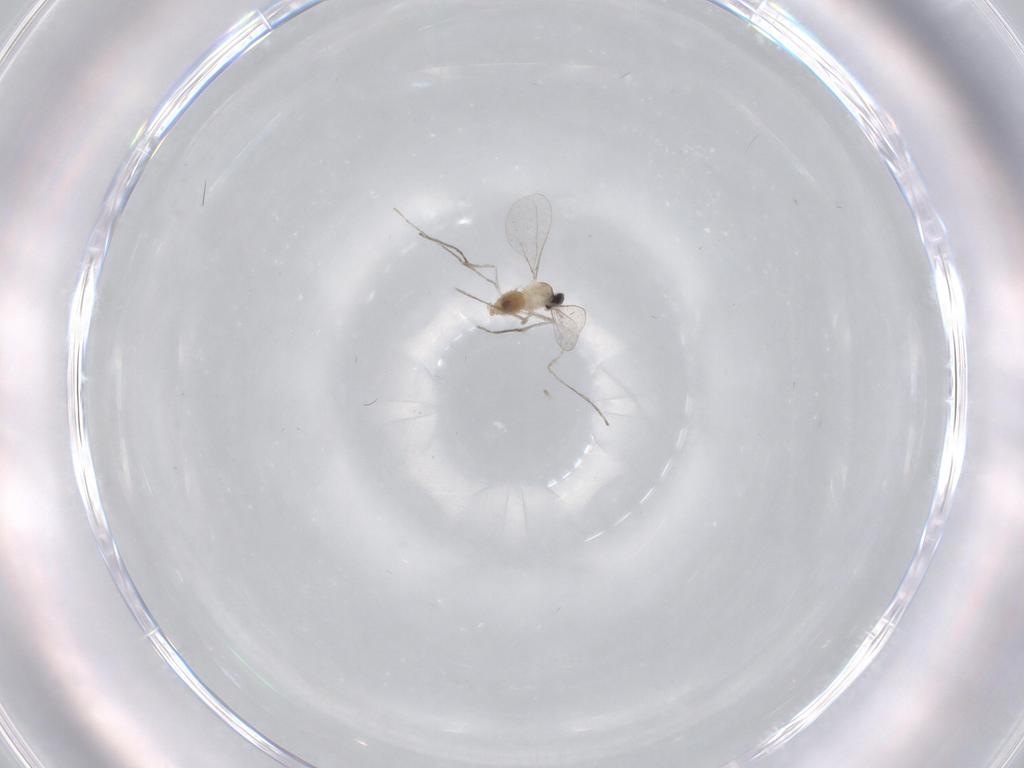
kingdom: Animalia
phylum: Arthropoda
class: Insecta
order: Diptera
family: Cecidomyiidae
